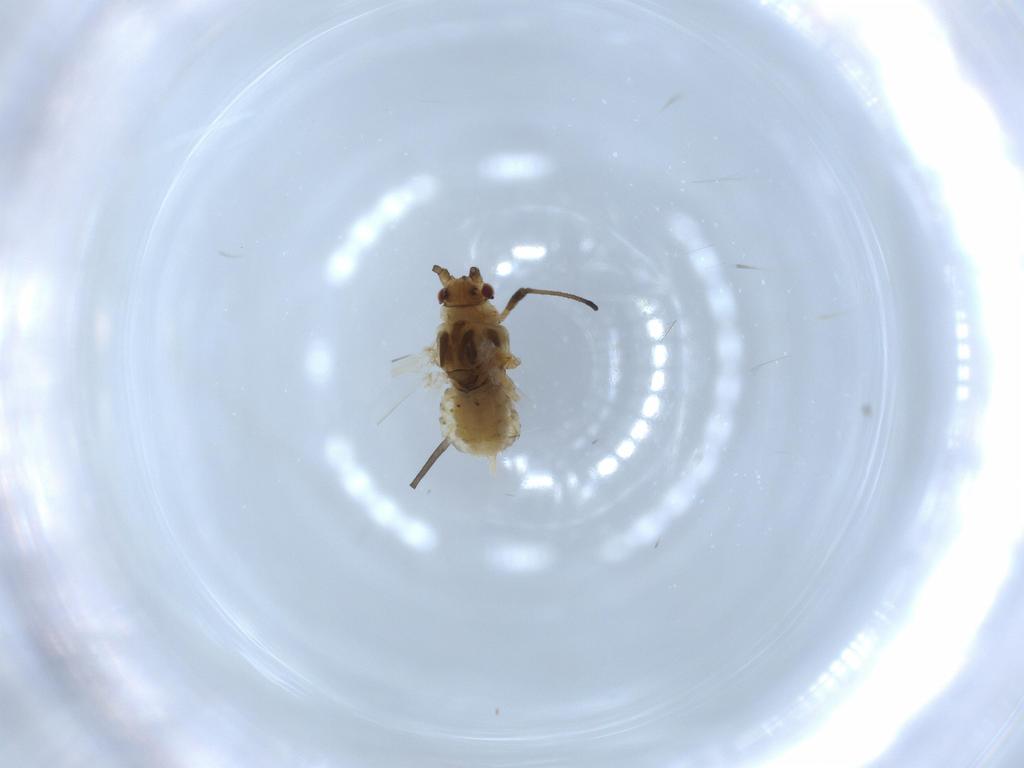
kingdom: Animalia
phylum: Arthropoda
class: Insecta
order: Hemiptera
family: Aphididae
